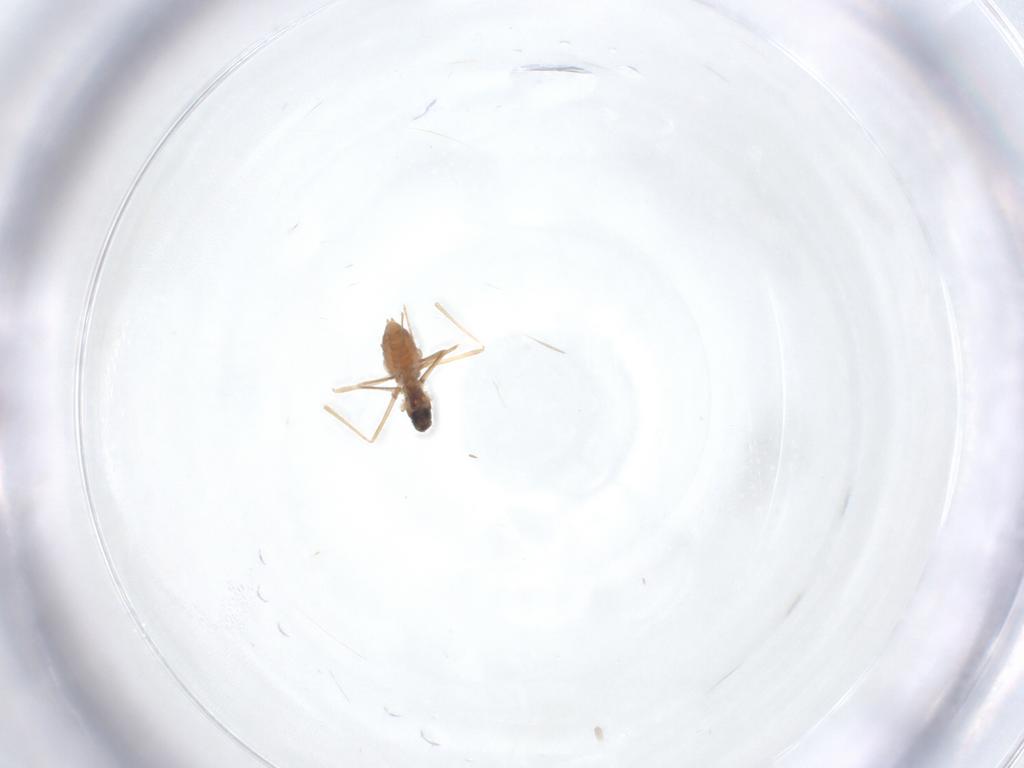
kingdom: Animalia
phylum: Arthropoda
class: Insecta
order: Diptera
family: Cecidomyiidae
